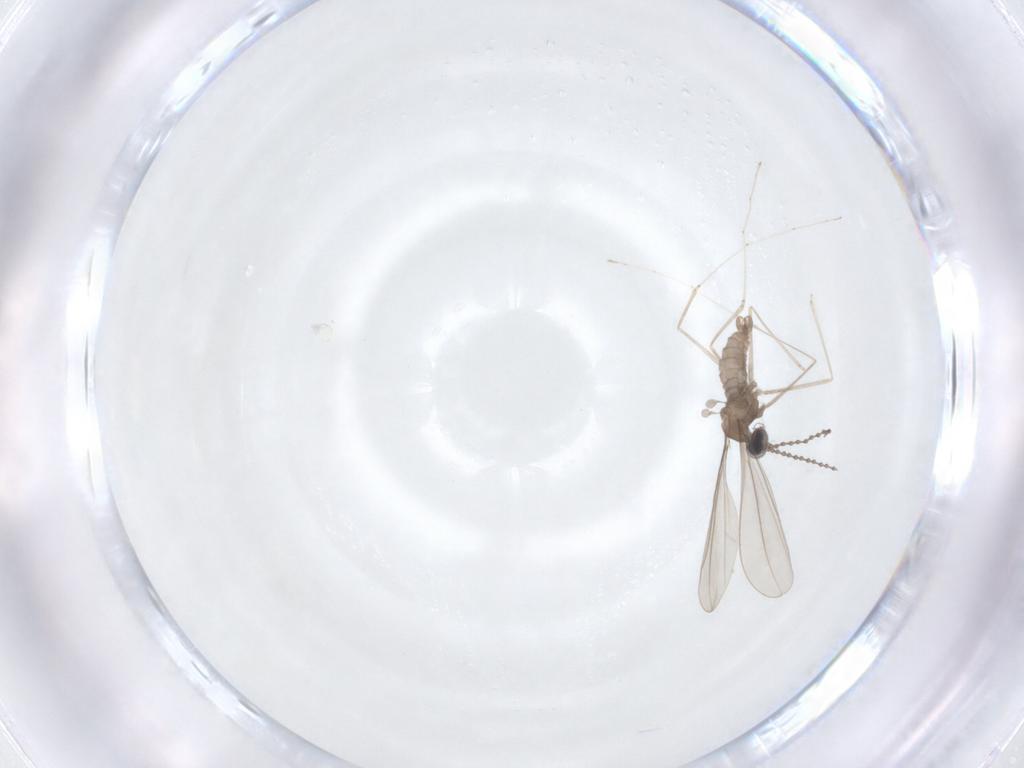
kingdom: Animalia
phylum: Arthropoda
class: Insecta
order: Diptera
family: Cecidomyiidae
